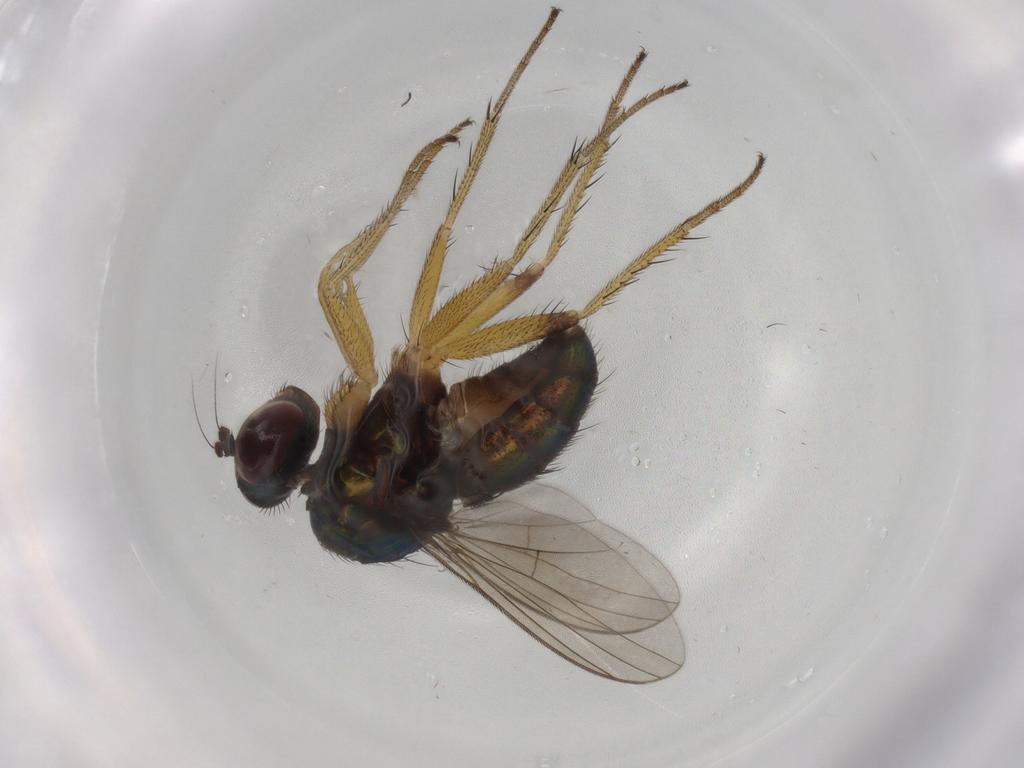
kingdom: Animalia
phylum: Arthropoda
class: Insecta
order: Diptera
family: Dolichopodidae
